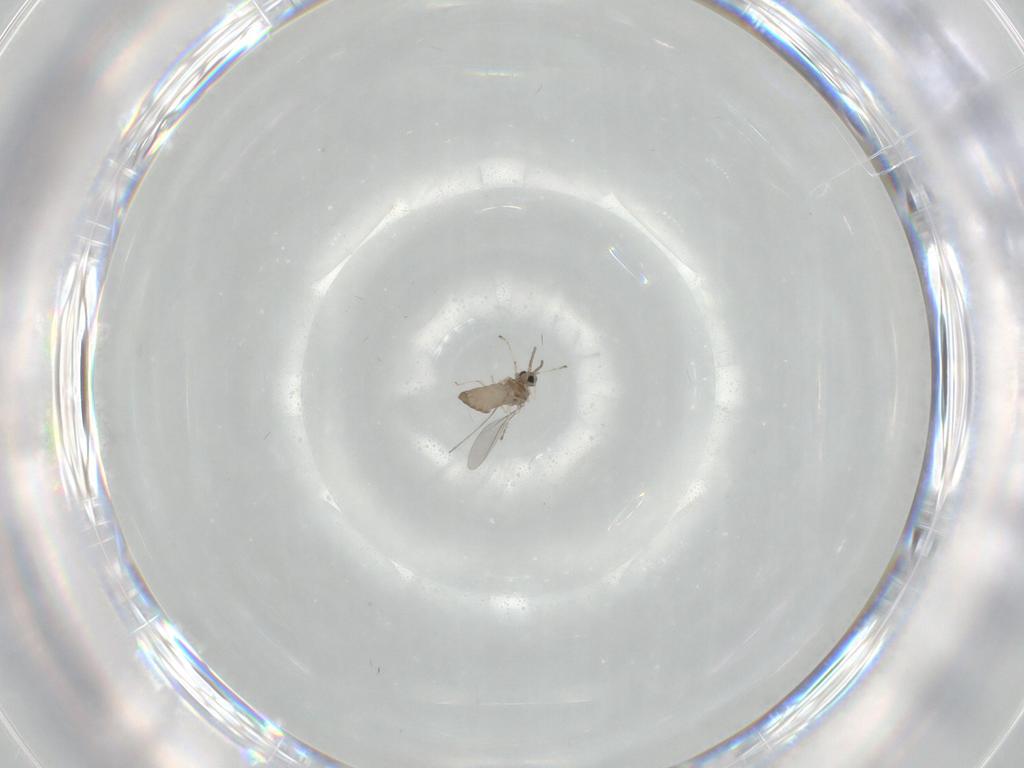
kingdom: Animalia
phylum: Arthropoda
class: Insecta
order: Diptera
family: Cecidomyiidae
